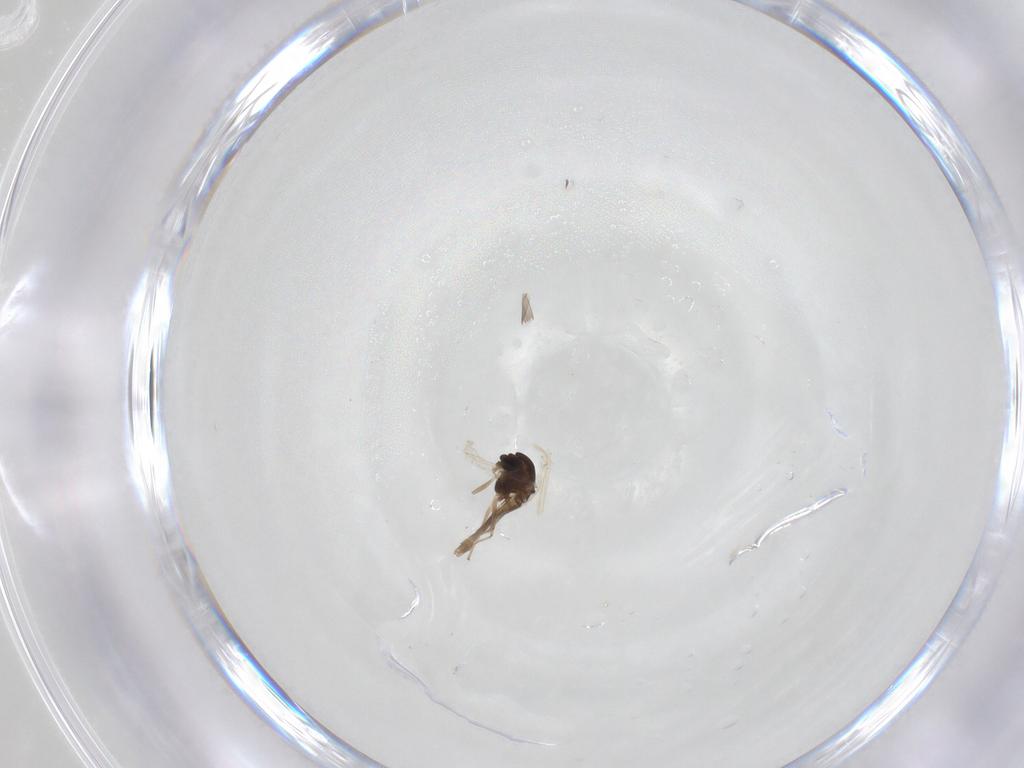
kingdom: Animalia
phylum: Arthropoda
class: Insecta
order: Diptera
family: Chironomidae
